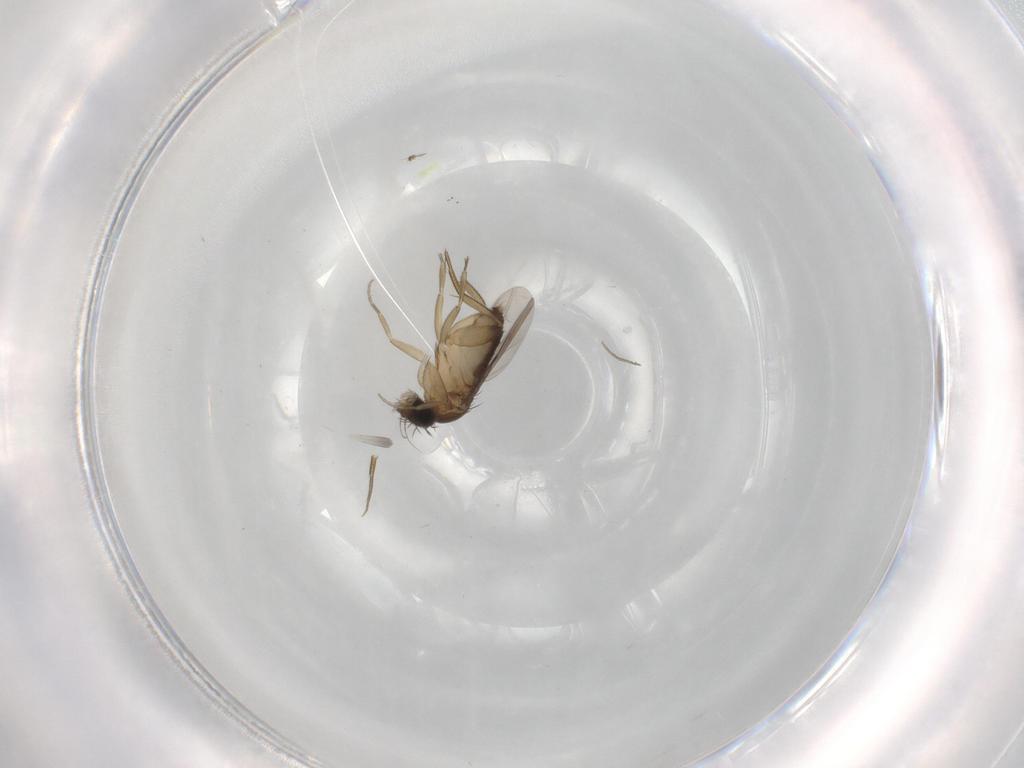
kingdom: Animalia
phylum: Arthropoda
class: Insecta
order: Diptera
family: Phoridae
